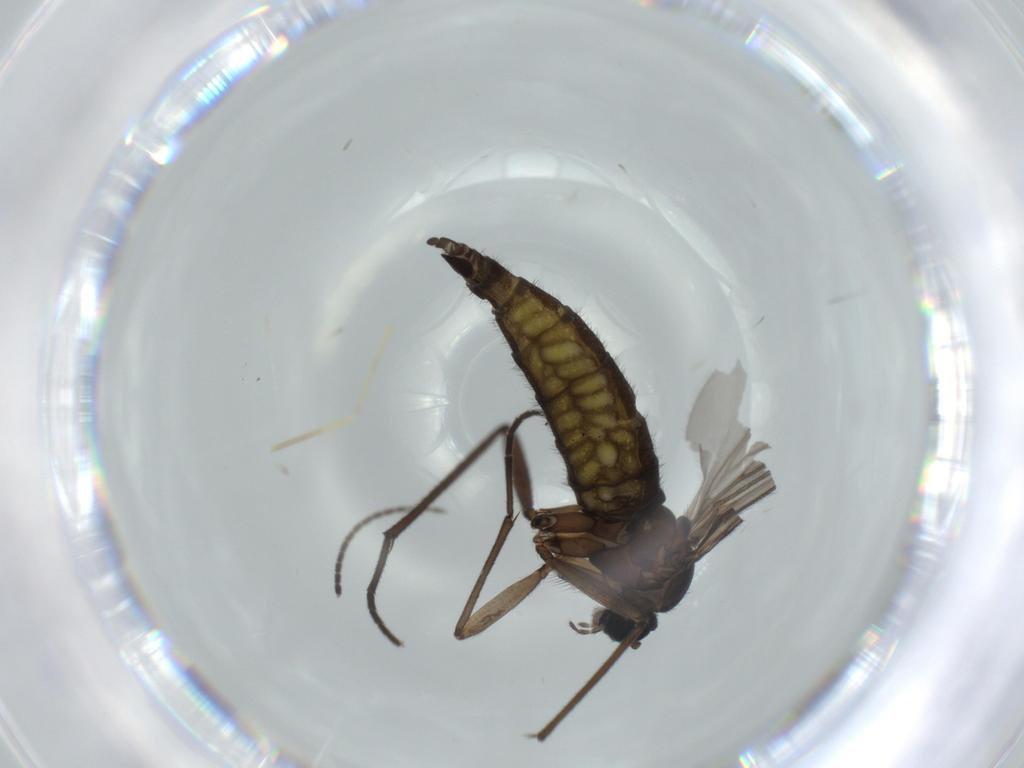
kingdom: Animalia
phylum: Arthropoda
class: Insecta
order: Diptera
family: Sciaridae
